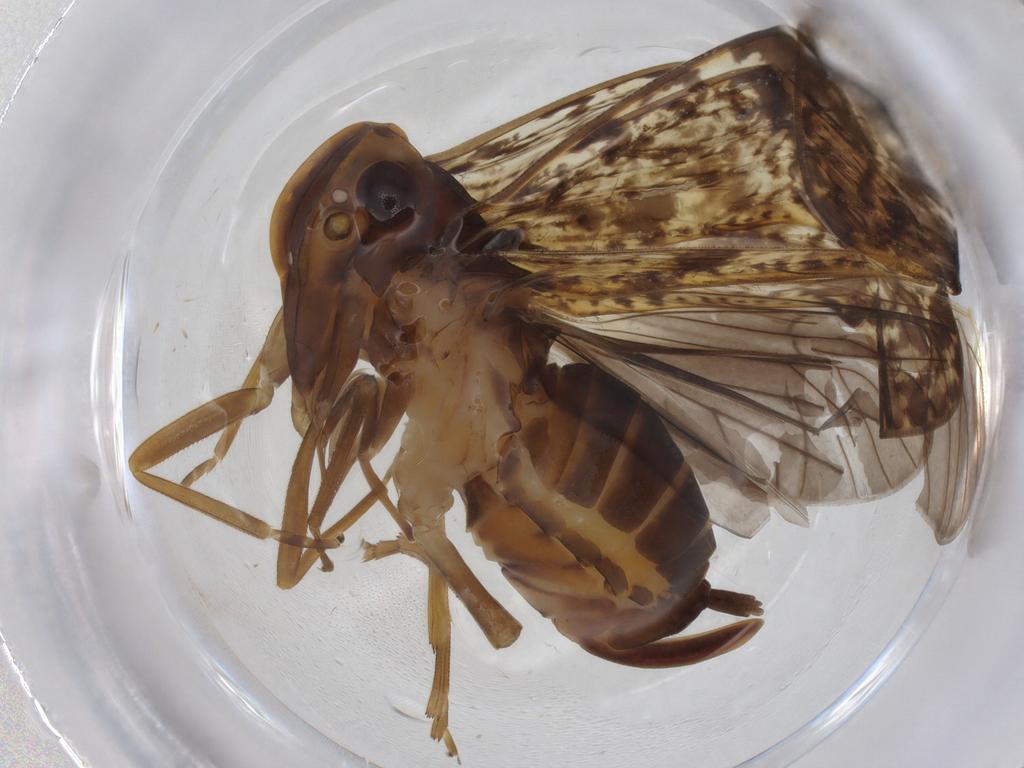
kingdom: Animalia
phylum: Arthropoda
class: Insecta
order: Hemiptera
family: Cixiidae
